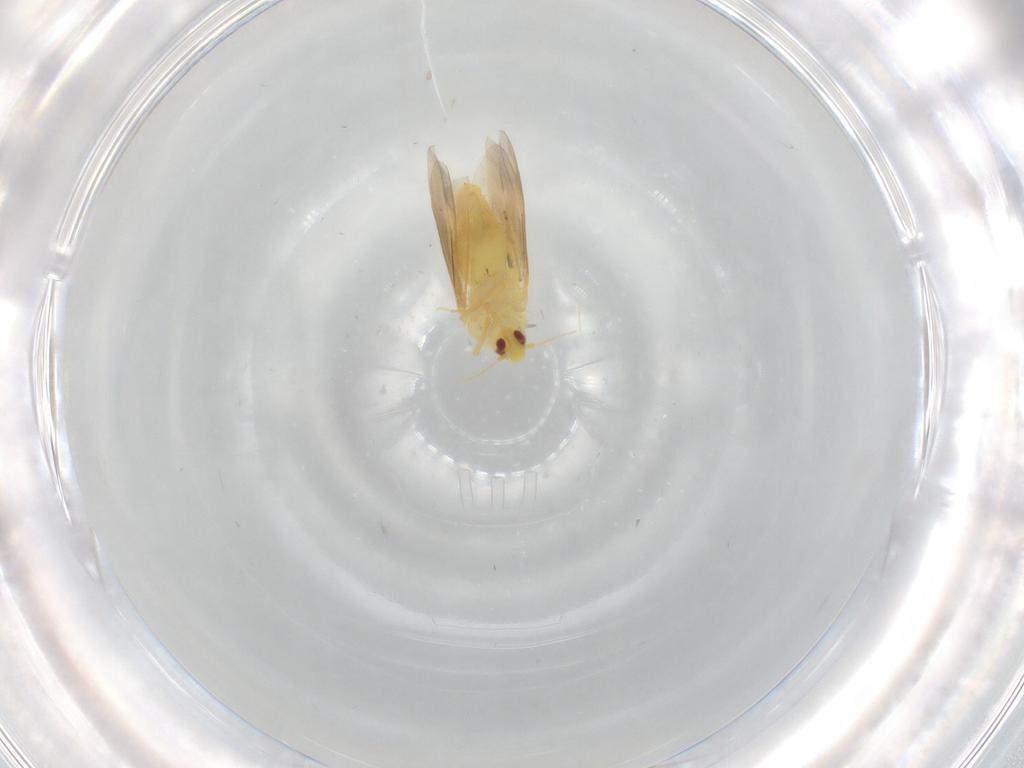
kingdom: Animalia
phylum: Arthropoda
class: Insecta
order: Hemiptera
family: Aleyrodidae
